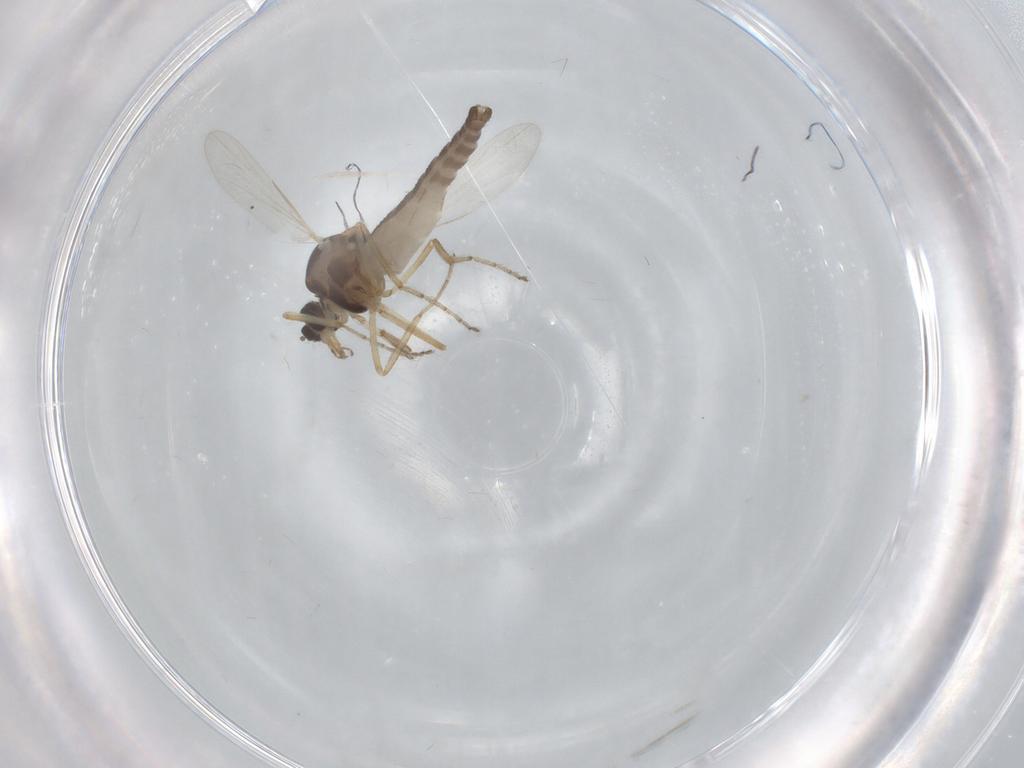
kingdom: Animalia
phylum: Arthropoda
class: Insecta
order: Diptera
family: Ceratopogonidae
